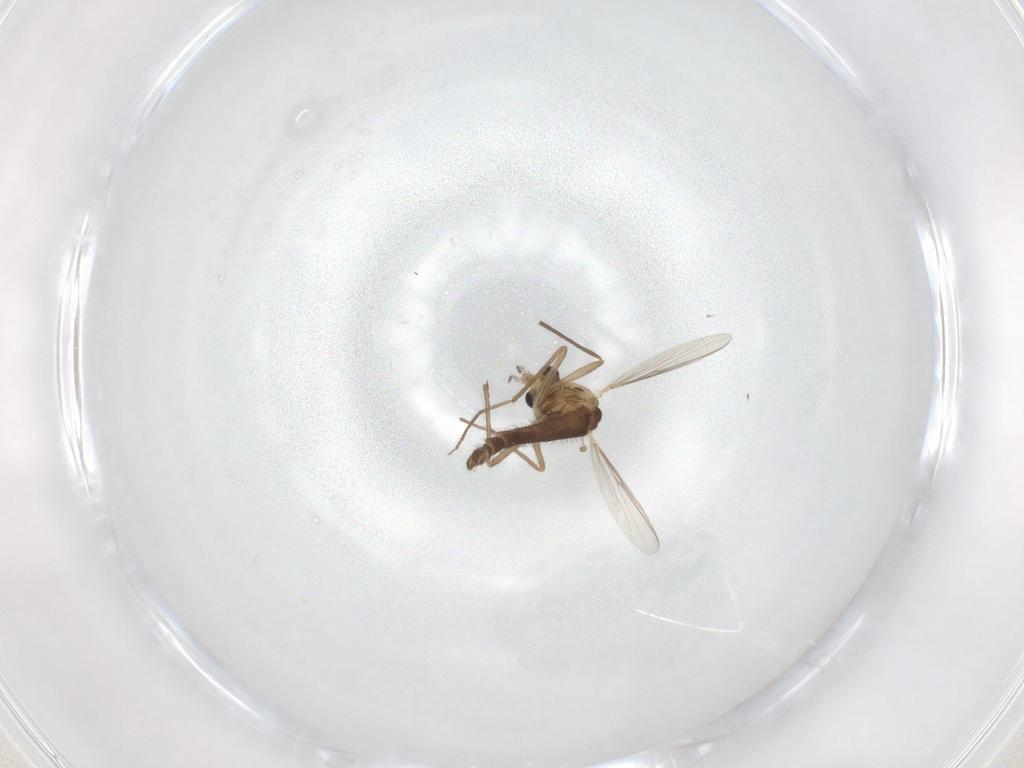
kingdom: Animalia
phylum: Arthropoda
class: Insecta
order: Diptera
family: Chironomidae
